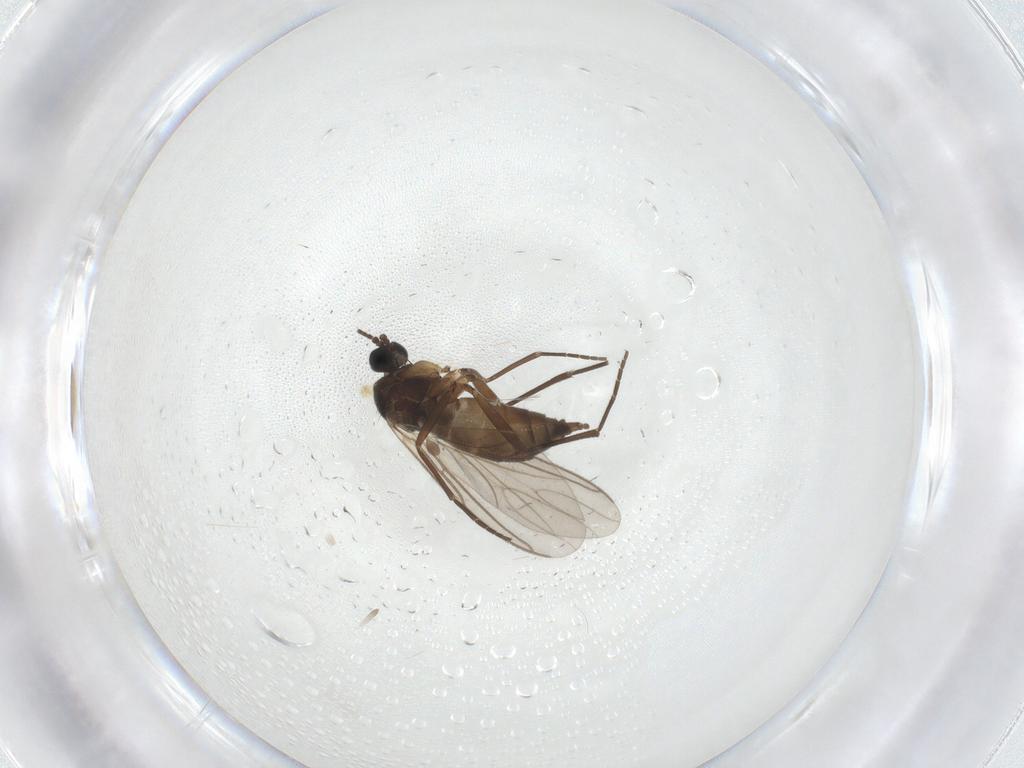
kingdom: Animalia
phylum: Arthropoda
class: Insecta
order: Diptera
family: Sciaridae
